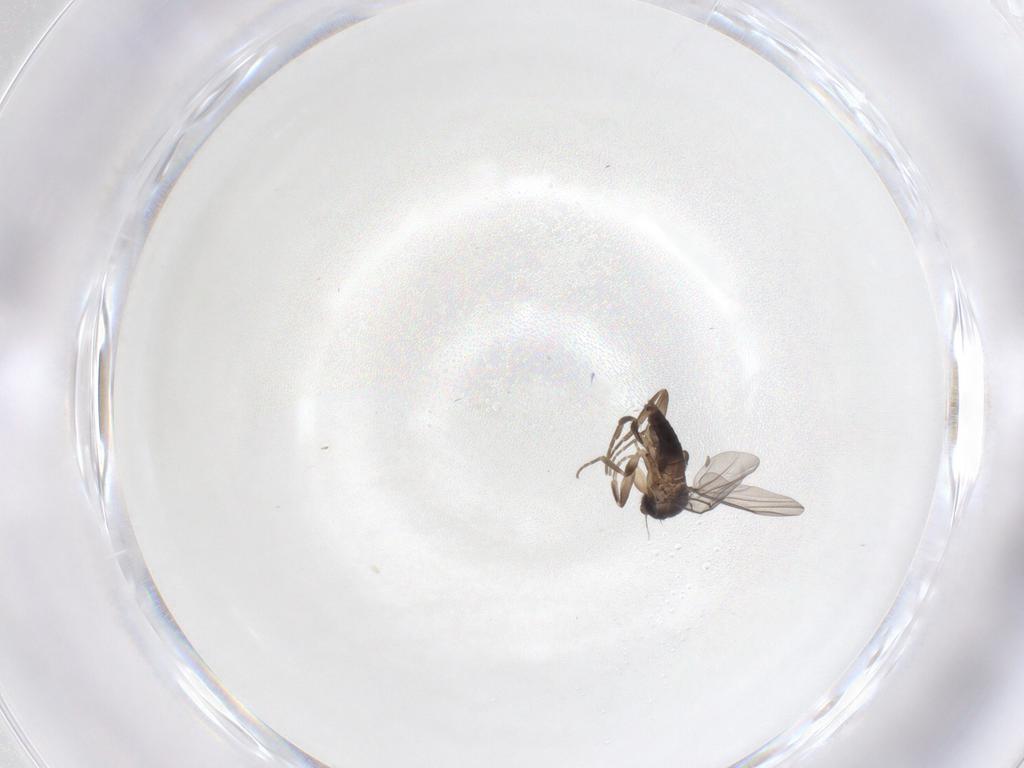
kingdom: Animalia
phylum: Arthropoda
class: Insecta
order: Diptera
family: Phoridae
